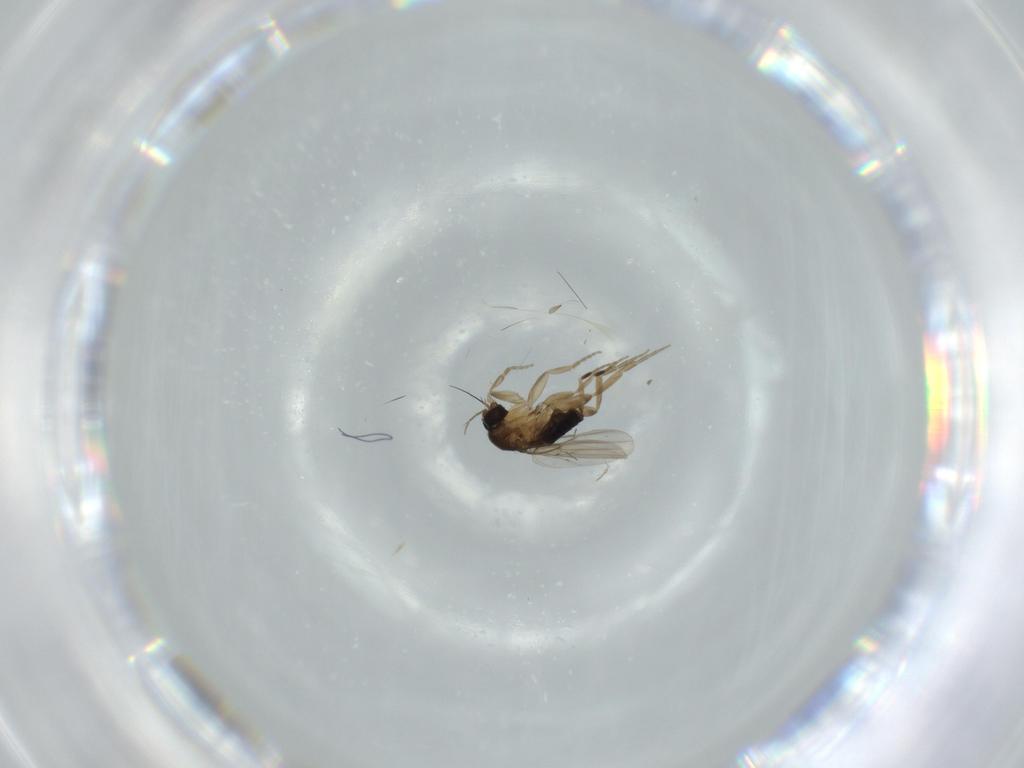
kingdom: Animalia
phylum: Arthropoda
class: Insecta
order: Diptera
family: Phoridae
